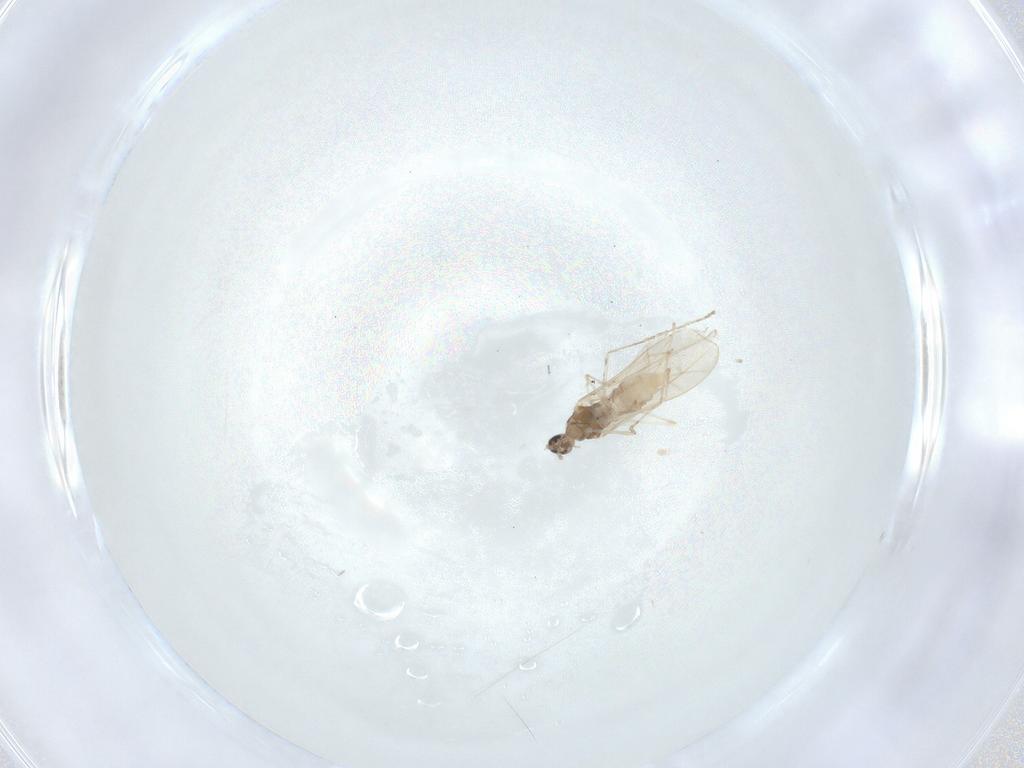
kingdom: Animalia
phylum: Arthropoda
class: Insecta
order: Diptera
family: Cecidomyiidae
